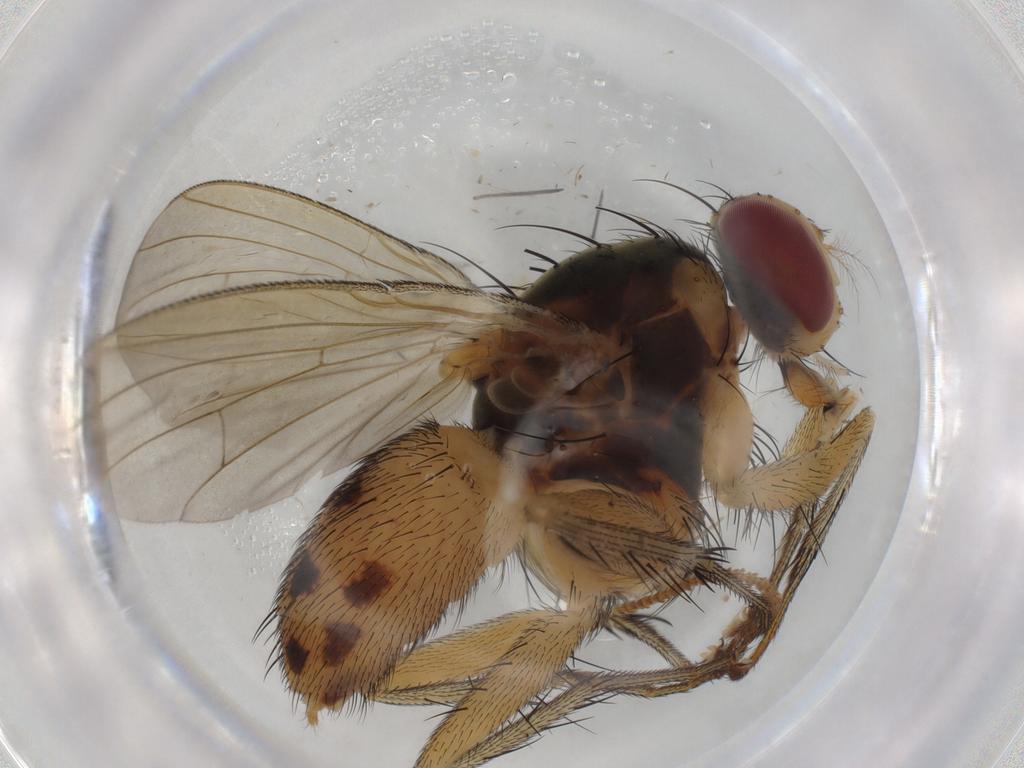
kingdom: Animalia
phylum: Arthropoda
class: Insecta
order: Diptera
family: Muscidae
